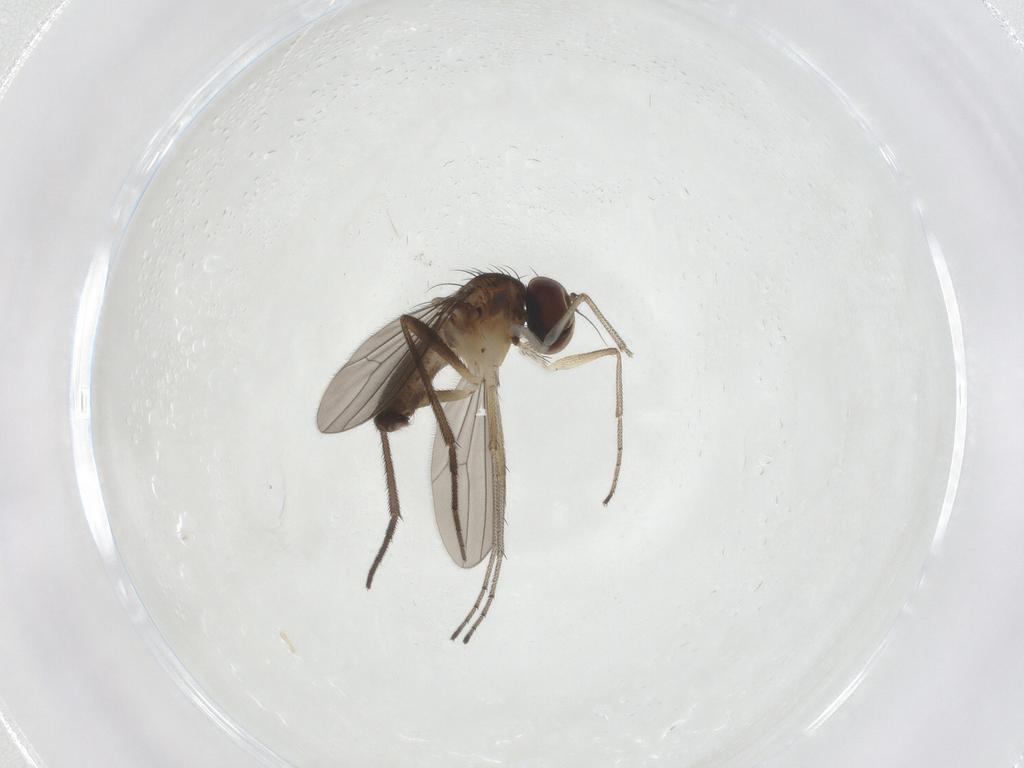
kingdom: Animalia
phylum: Arthropoda
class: Insecta
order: Diptera
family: Dolichopodidae
